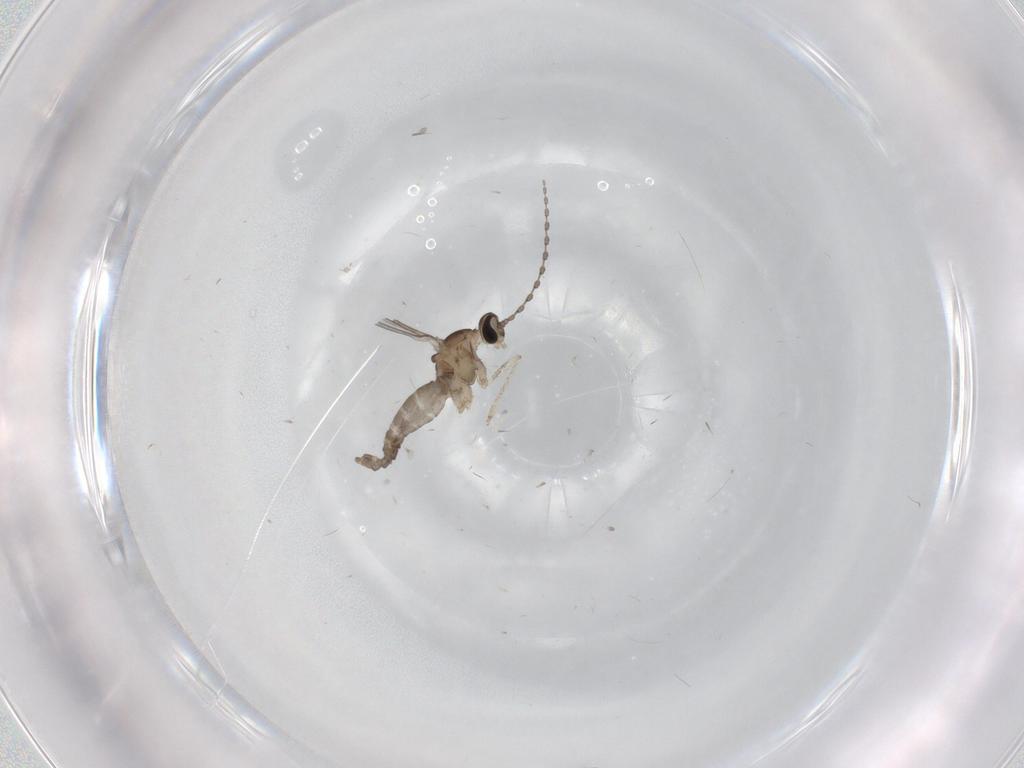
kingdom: Animalia
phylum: Arthropoda
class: Insecta
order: Diptera
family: Cecidomyiidae
